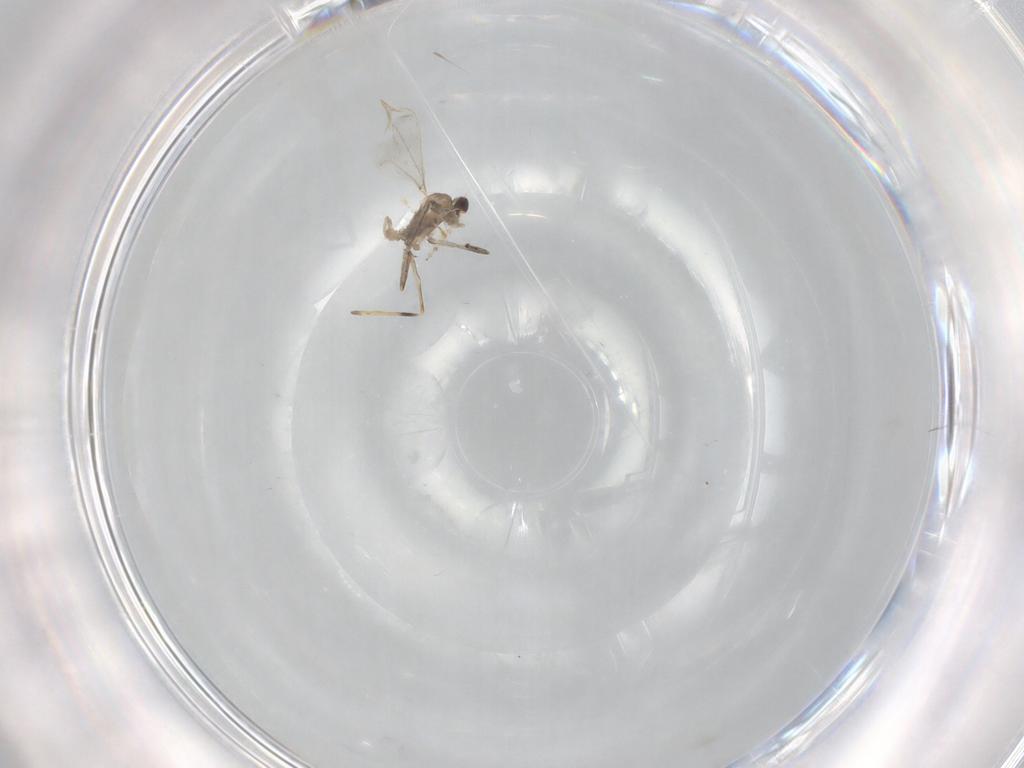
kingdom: Animalia
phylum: Arthropoda
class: Insecta
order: Diptera
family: Cecidomyiidae
